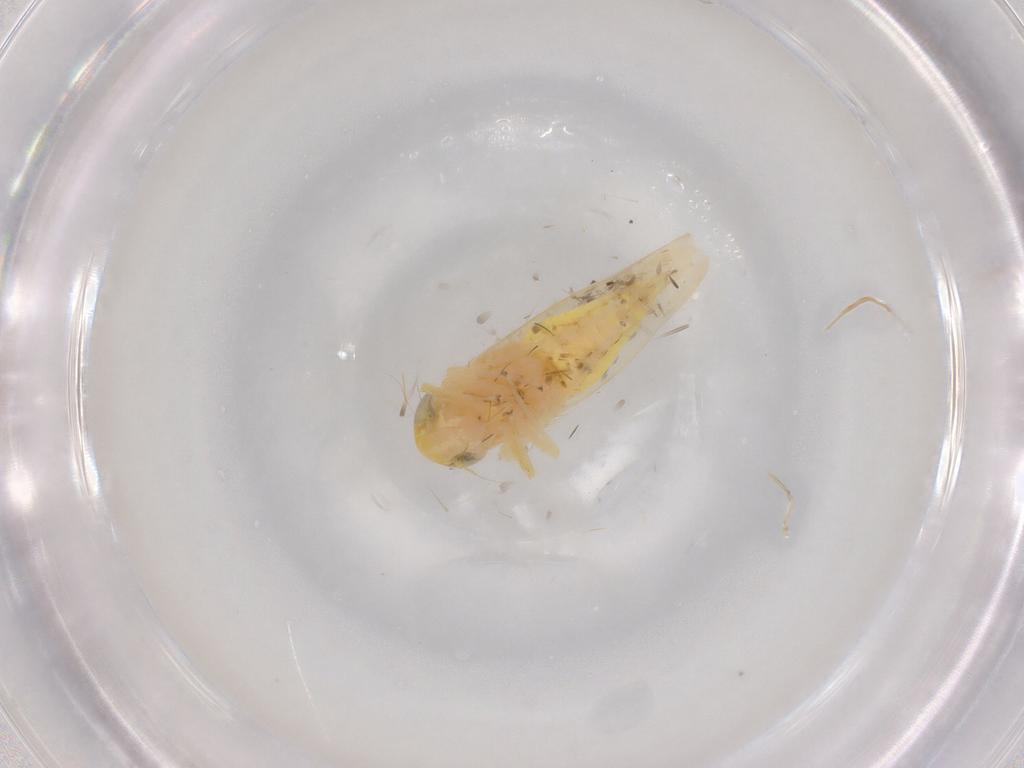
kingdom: Animalia
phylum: Arthropoda
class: Insecta
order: Hemiptera
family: Cicadellidae
